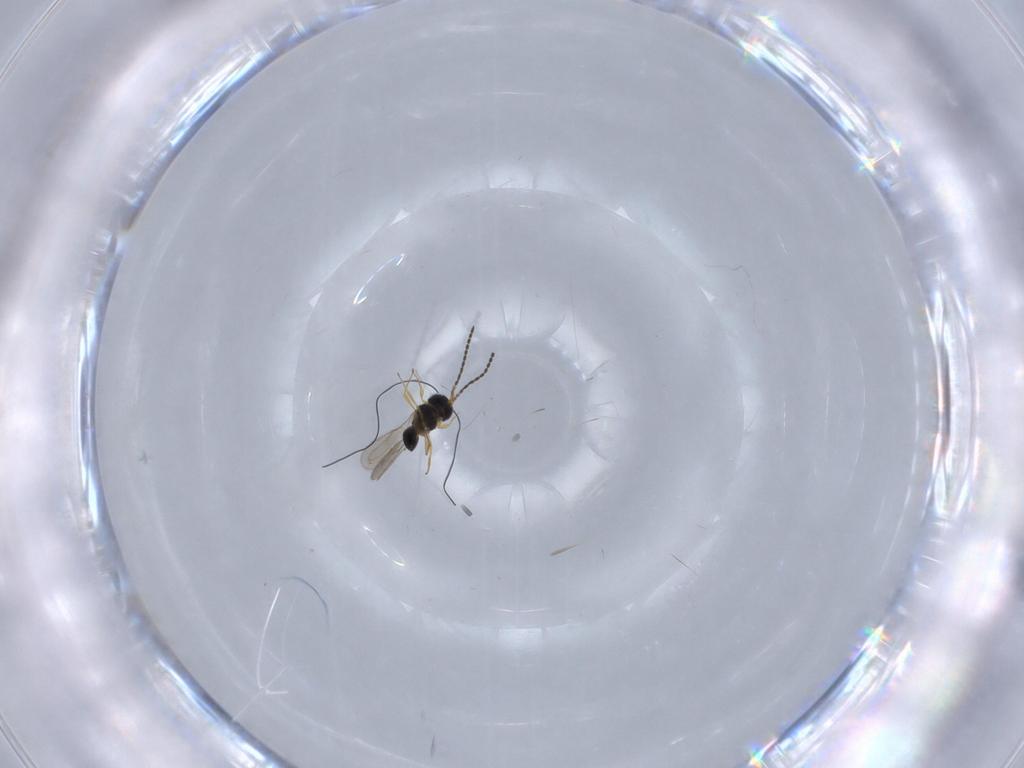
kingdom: Animalia
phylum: Arthropoda
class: Insecta
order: Hymenoptera
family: Scelionidae
